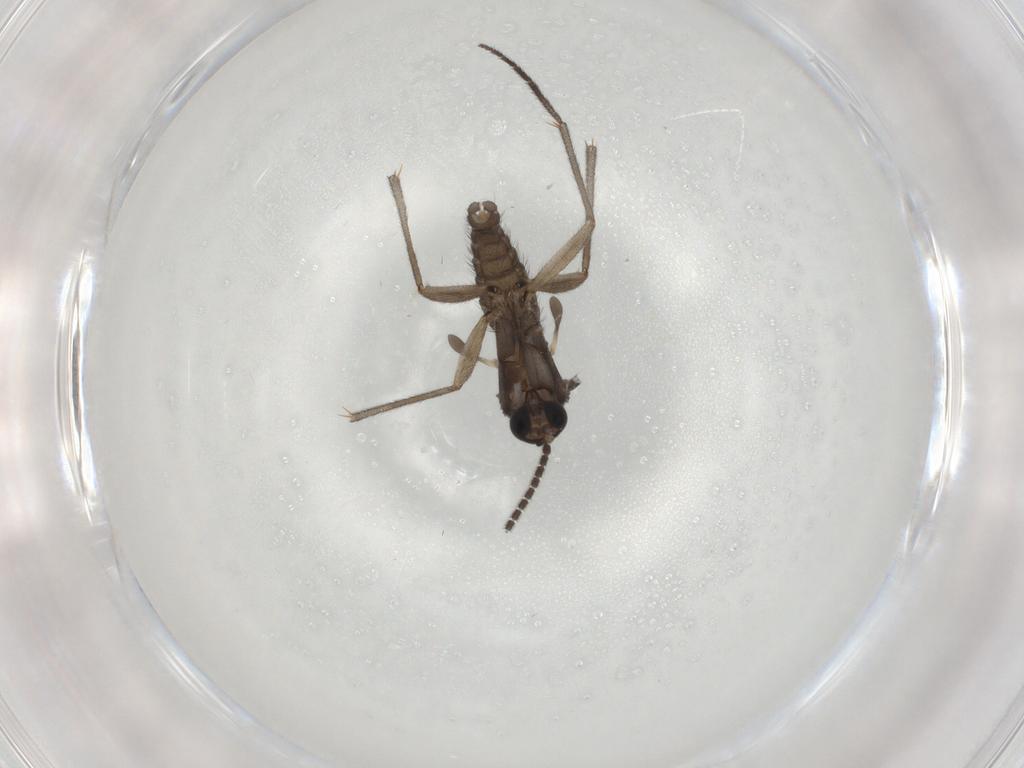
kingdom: Animalia
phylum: Arthropoda
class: Insecta
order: Diptera
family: Sciaridae
